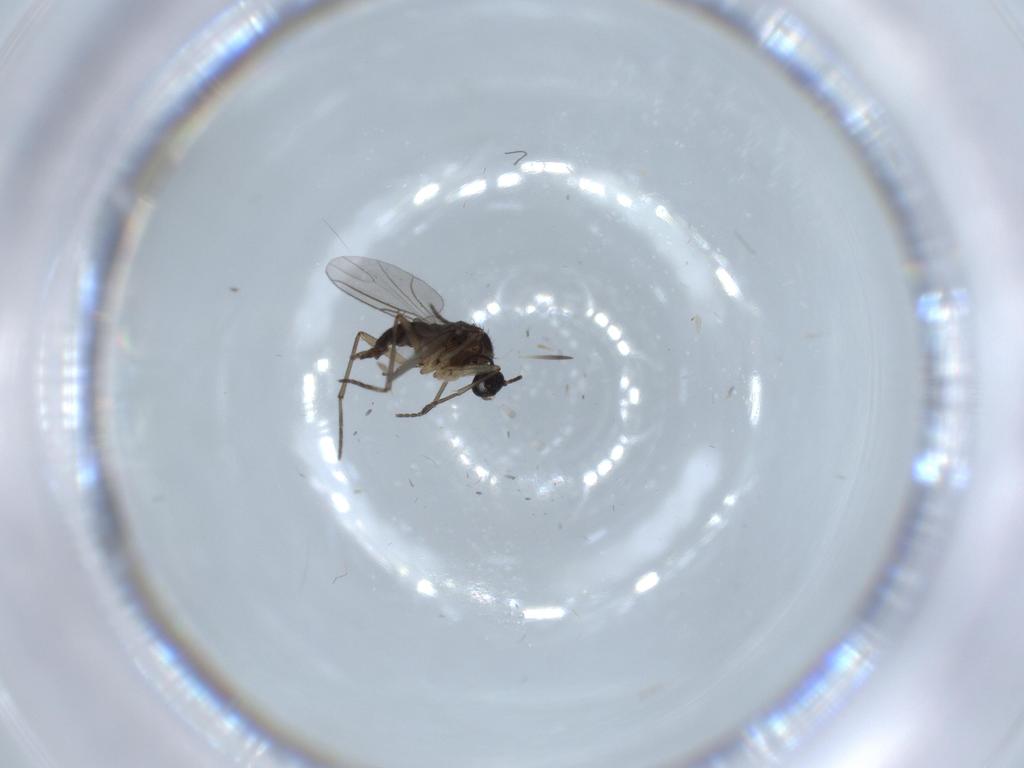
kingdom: Animalia
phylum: Arthropoda
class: Insecta
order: Diptera
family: Sciaridae
